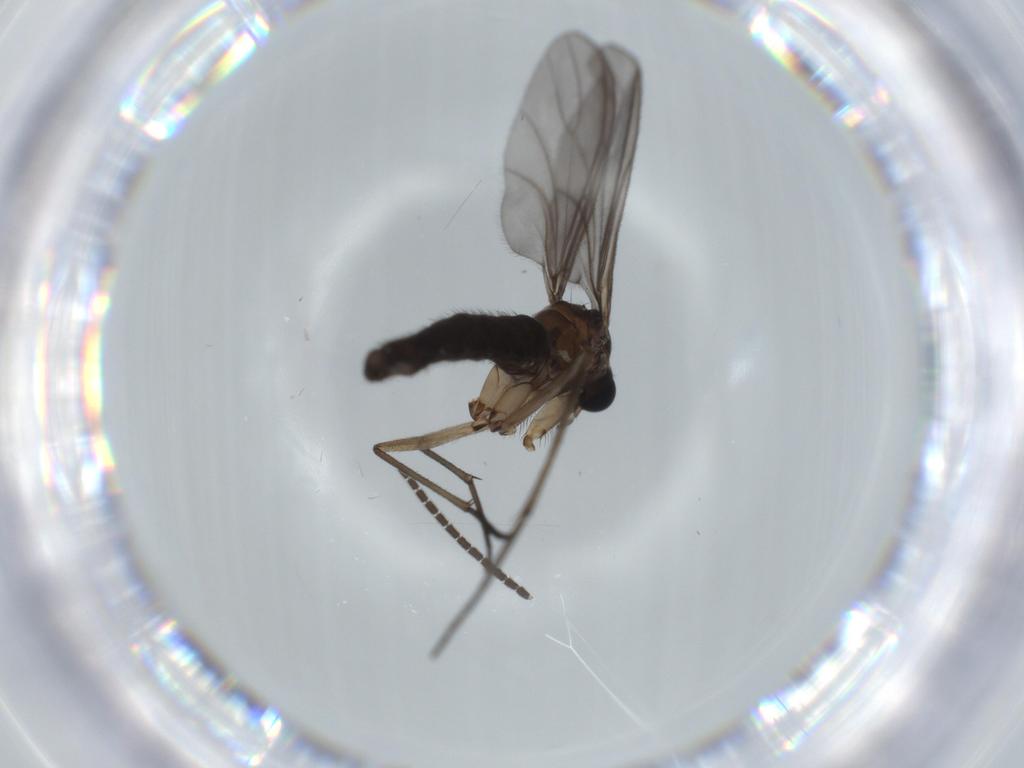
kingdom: Animalia
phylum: Arthropoda
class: Insecta
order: Diptera
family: Sciaridae
